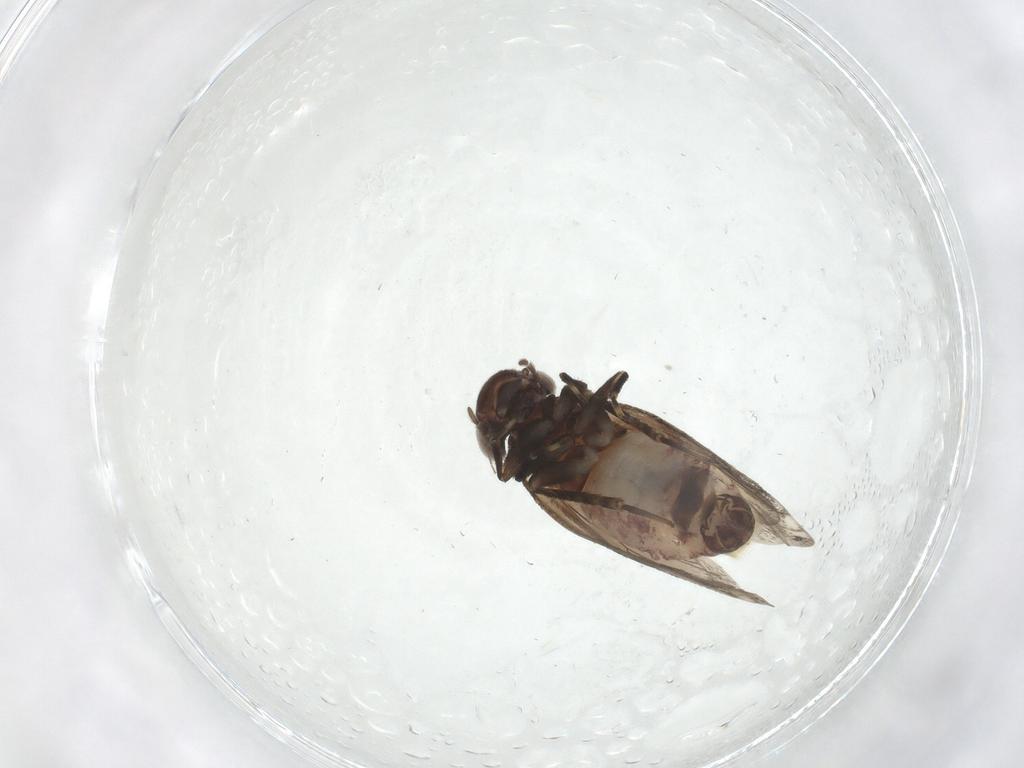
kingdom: Animalia
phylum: Arthropoda
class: Insecta
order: Psocodea
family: Amphientomidae
